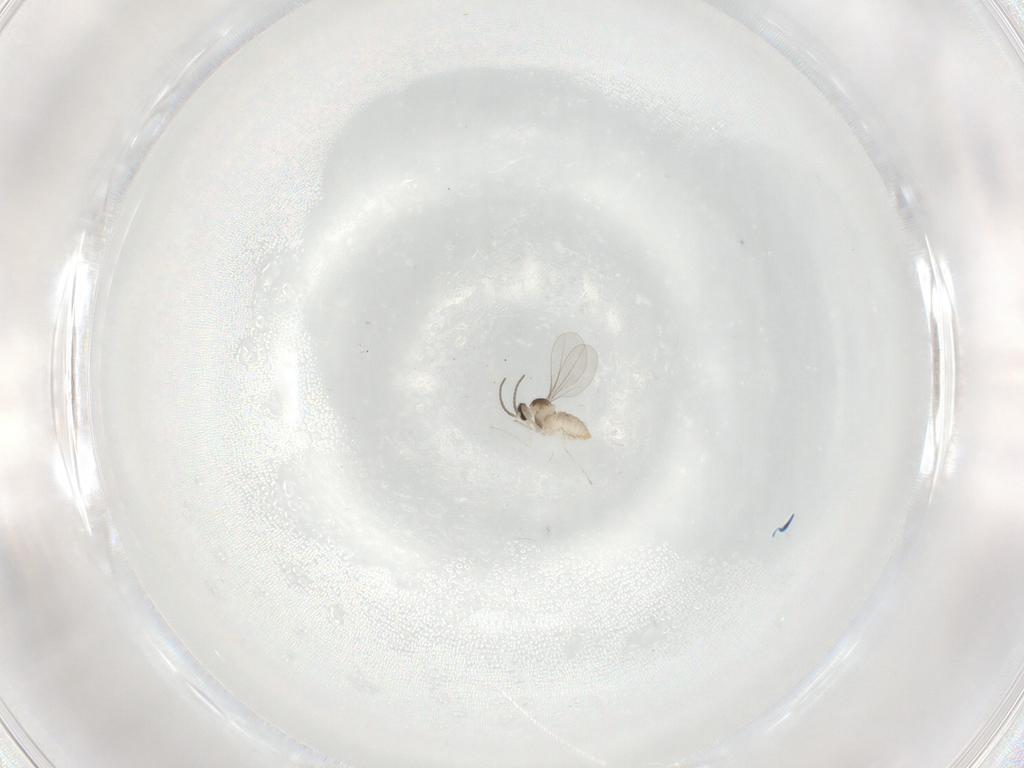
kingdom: Animalia
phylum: Arthropoda
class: Insecta
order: Diptera
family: Cecidomyiidae
